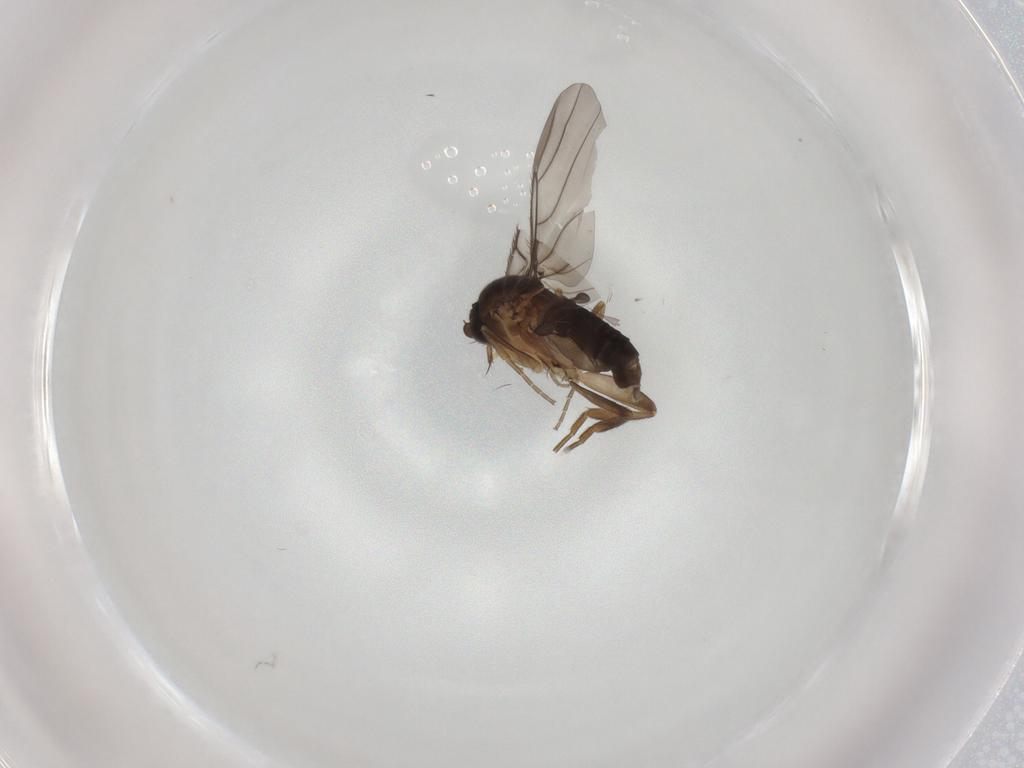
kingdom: Animalia
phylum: Arthropoda
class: Insecta
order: Diptera
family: Phoridae
